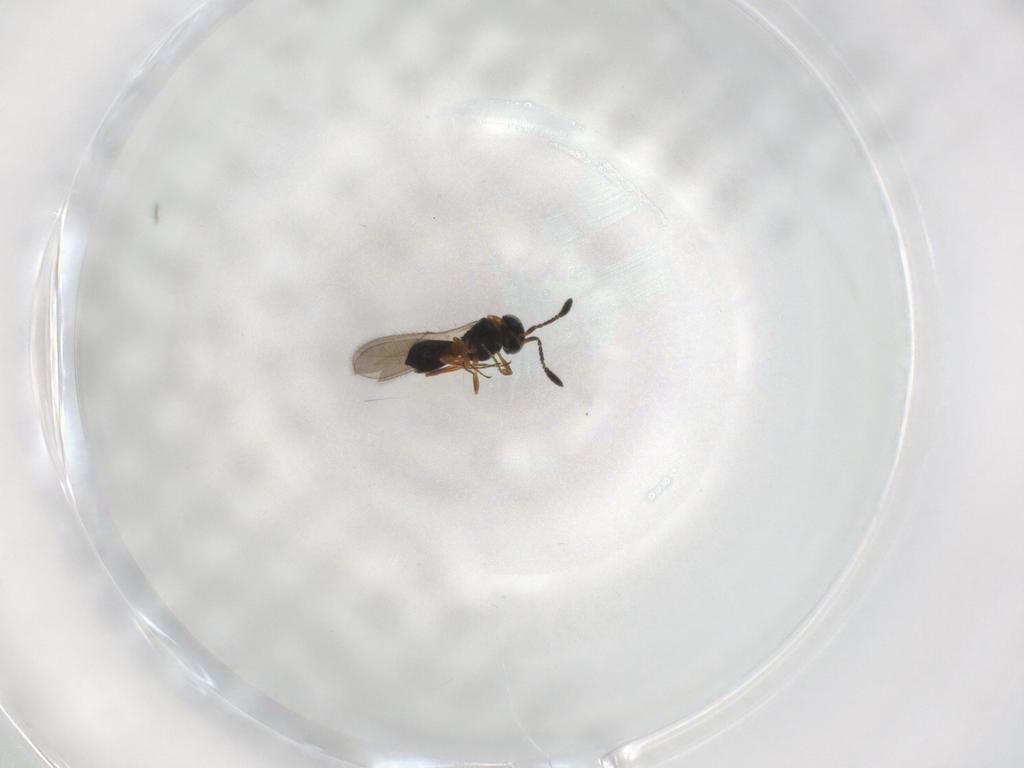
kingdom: Animalia
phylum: Arthropoda
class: Insecta
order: Hymenoptera
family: Scelionidae
